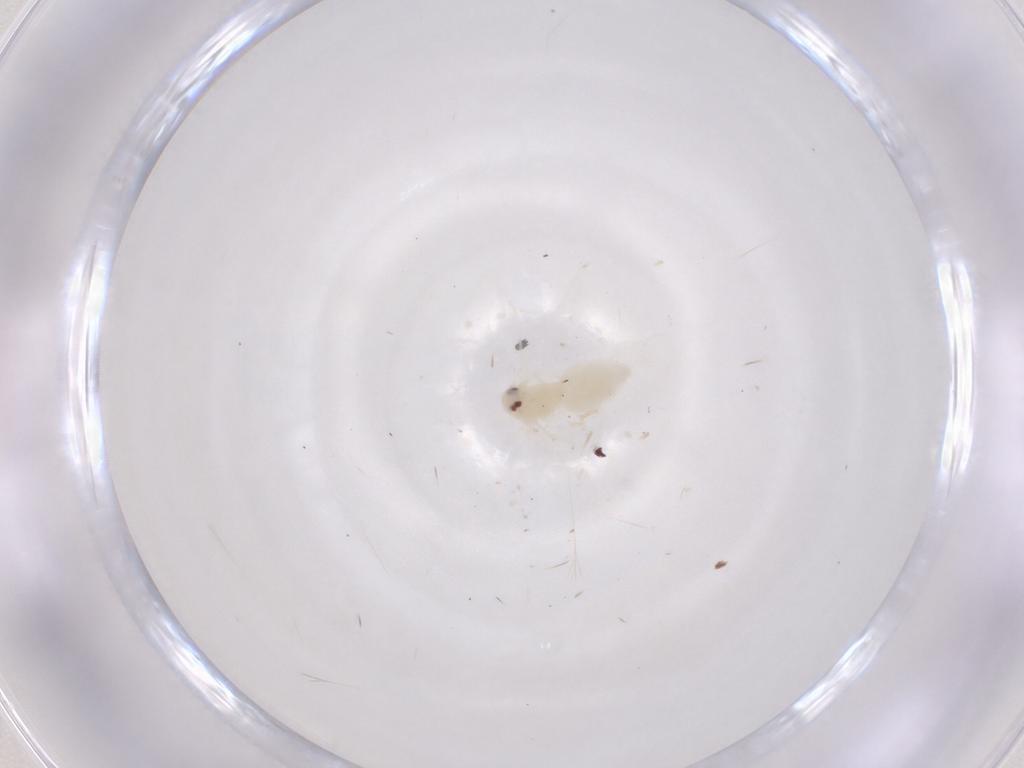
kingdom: Animalia
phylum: Arthropoda
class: Insecta
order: Hemiptera
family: Aleyrodidae
